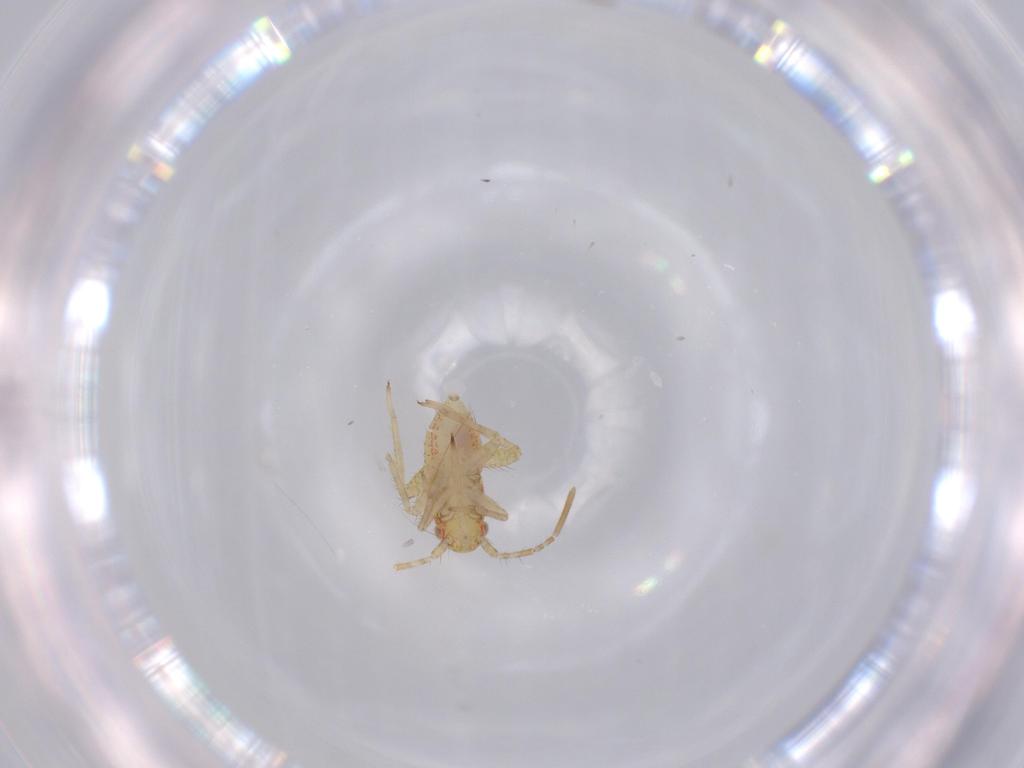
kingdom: Animalia
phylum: Arthropoda
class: Insecta
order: Hemiptera
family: Miridae
